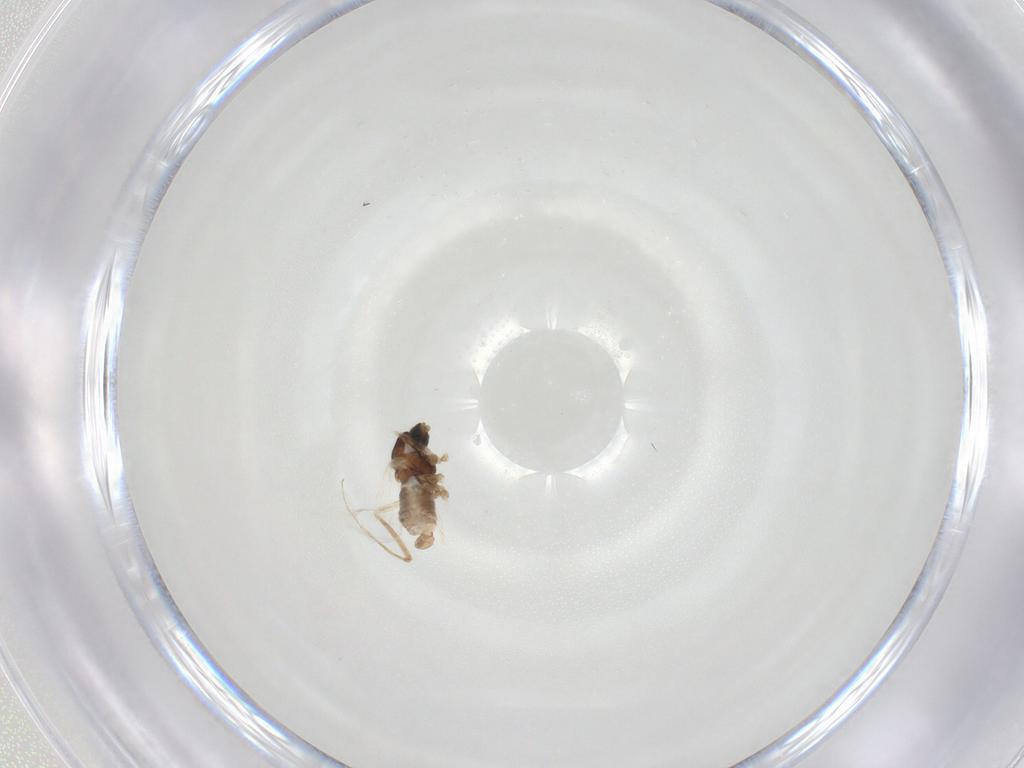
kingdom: Animalia
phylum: Arthropoda
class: Insecta
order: Diptera
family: Cecidomyiidae
